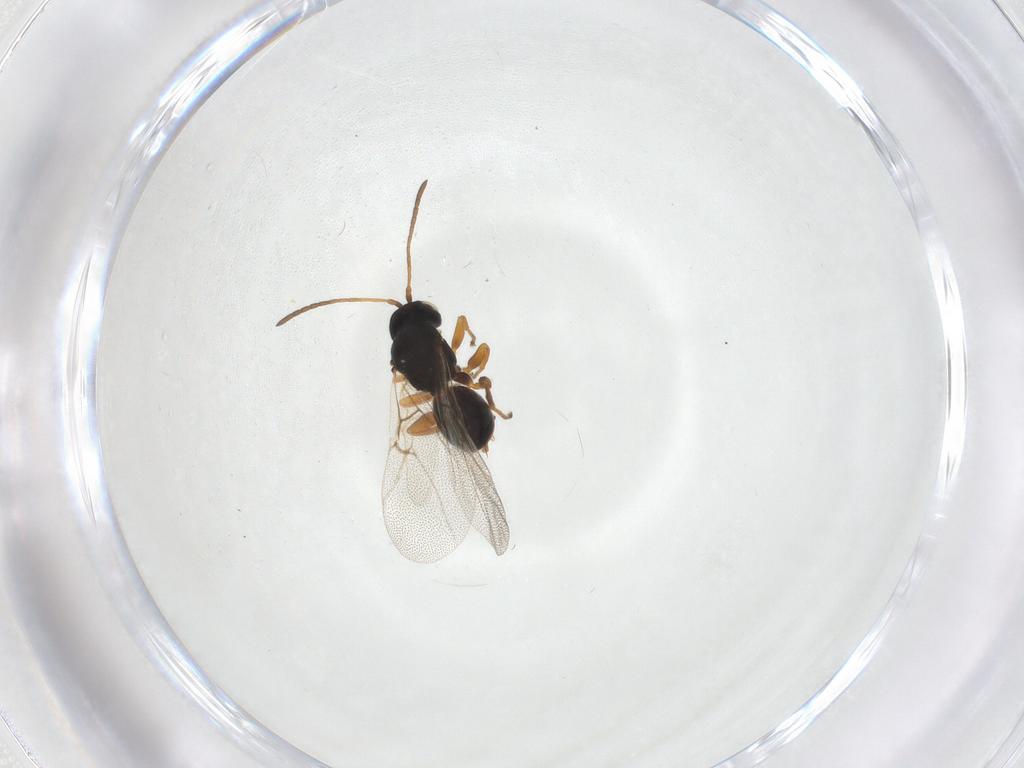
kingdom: Animalia
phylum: Arthropoda
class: Insecta
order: Hymenoptera
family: Cynipidae
